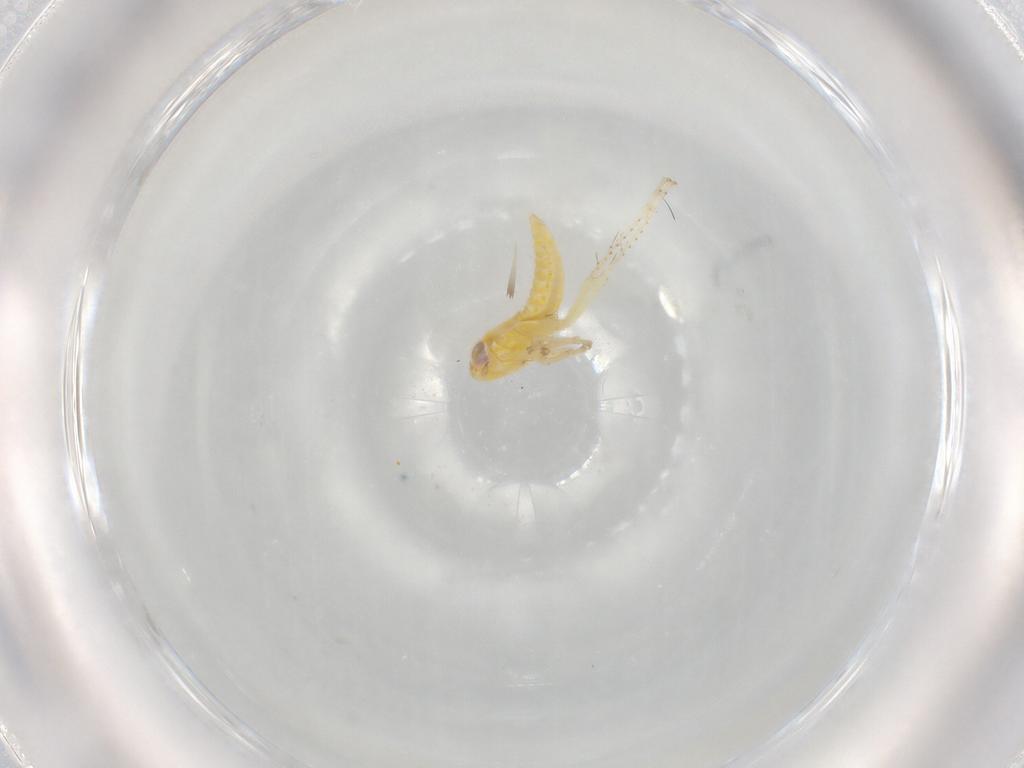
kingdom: Animalia
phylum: Arthropoda
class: Insecta
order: Hemiptera
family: Cicadellidae
